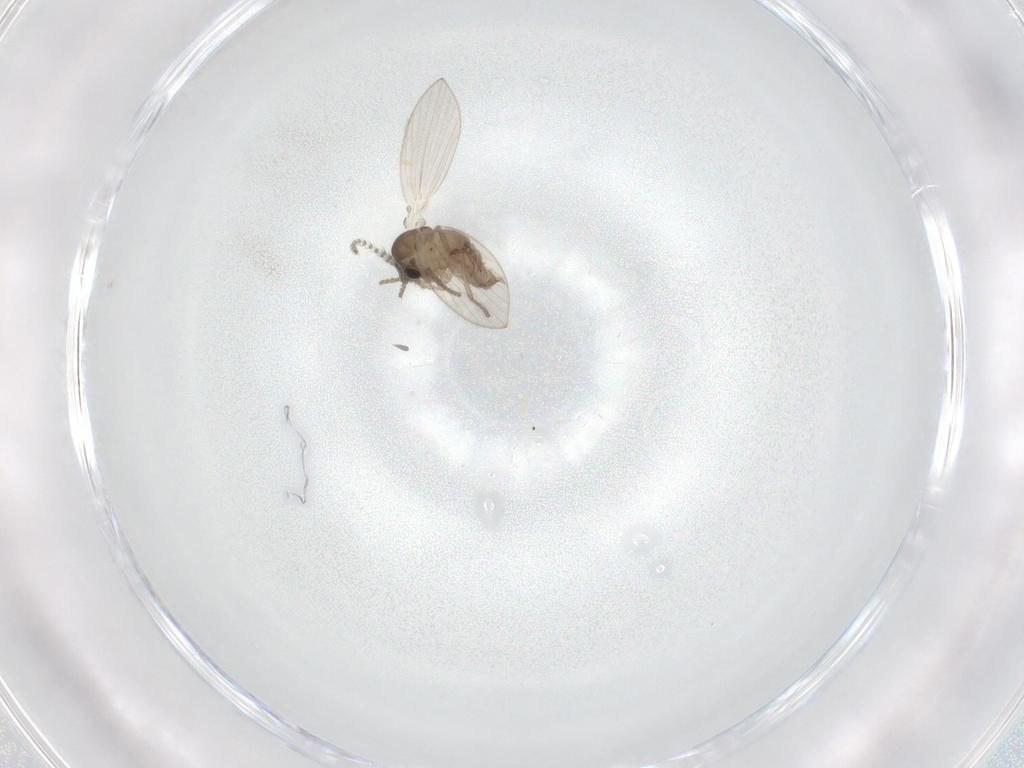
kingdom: Animalia
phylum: Arthropoda
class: Insecta
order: Diptera
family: Psychodidae
